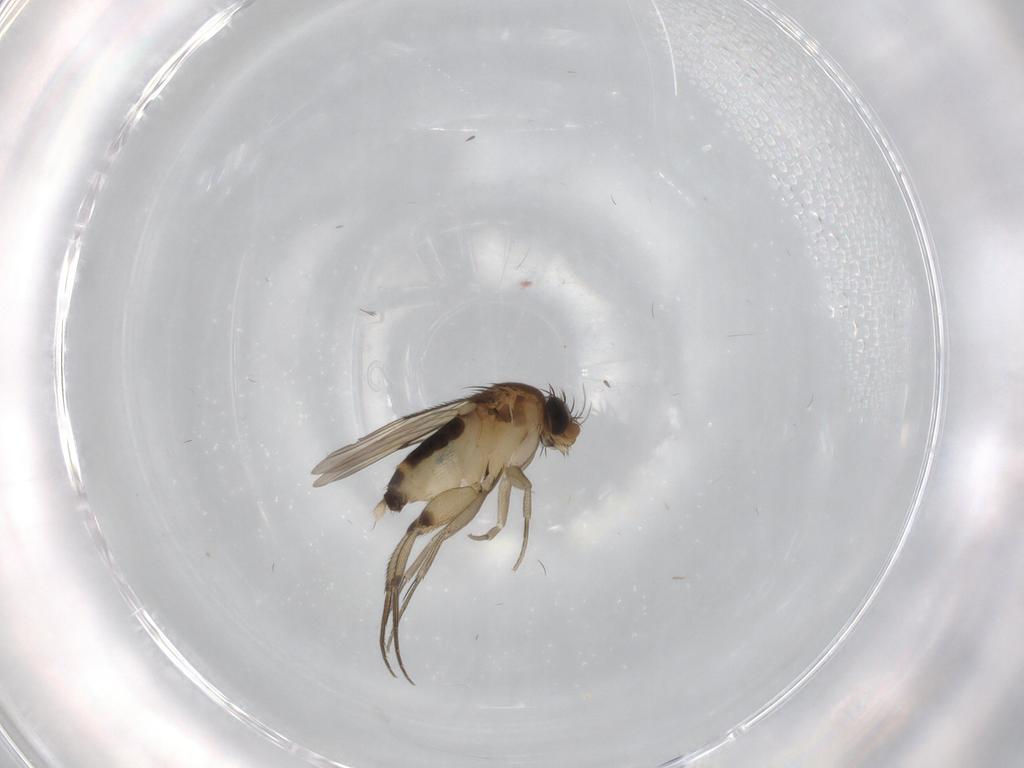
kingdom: Animalia
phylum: Arthropoda
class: Insecta
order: Diptera
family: Phoridae
